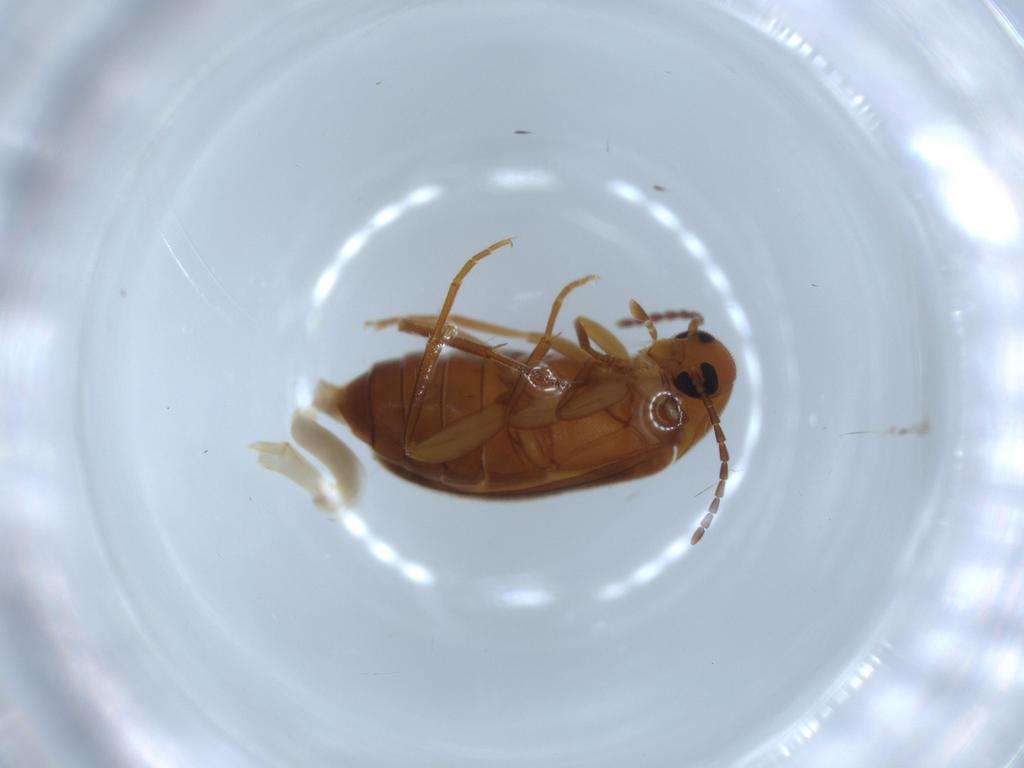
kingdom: Animalia
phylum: Arthropoda
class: Insecta
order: Coleoptera
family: Scraptiidae
